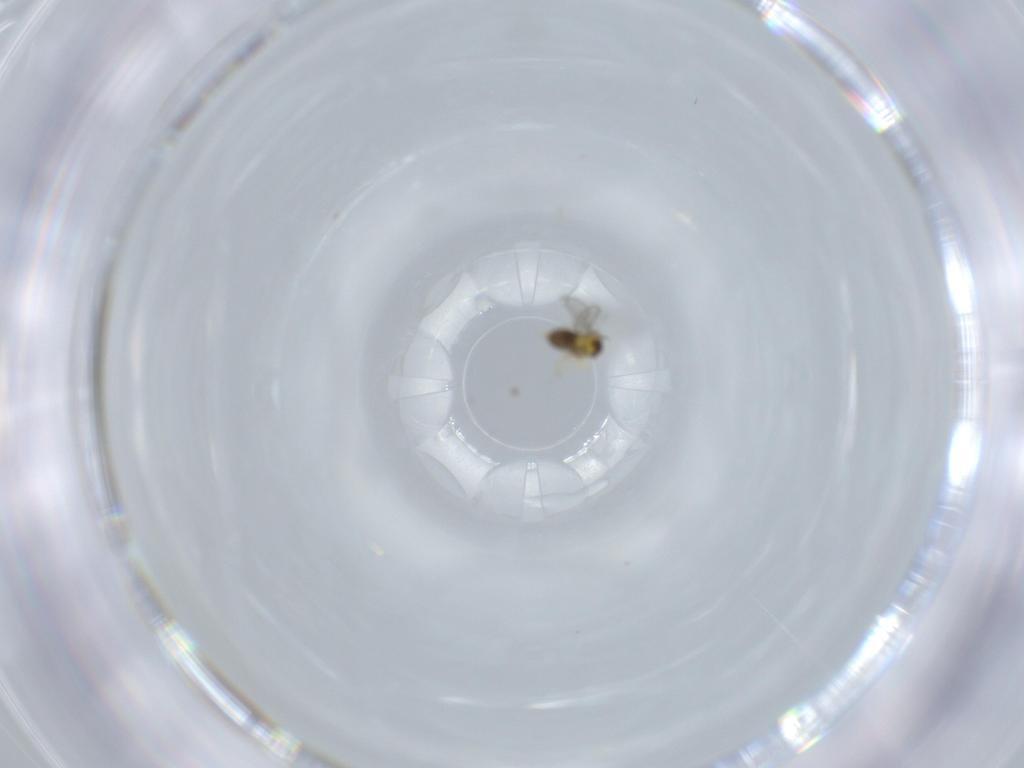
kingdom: Animalia
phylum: Arthropoda
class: Insecta
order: Hymenoptera
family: Aphelinidae
